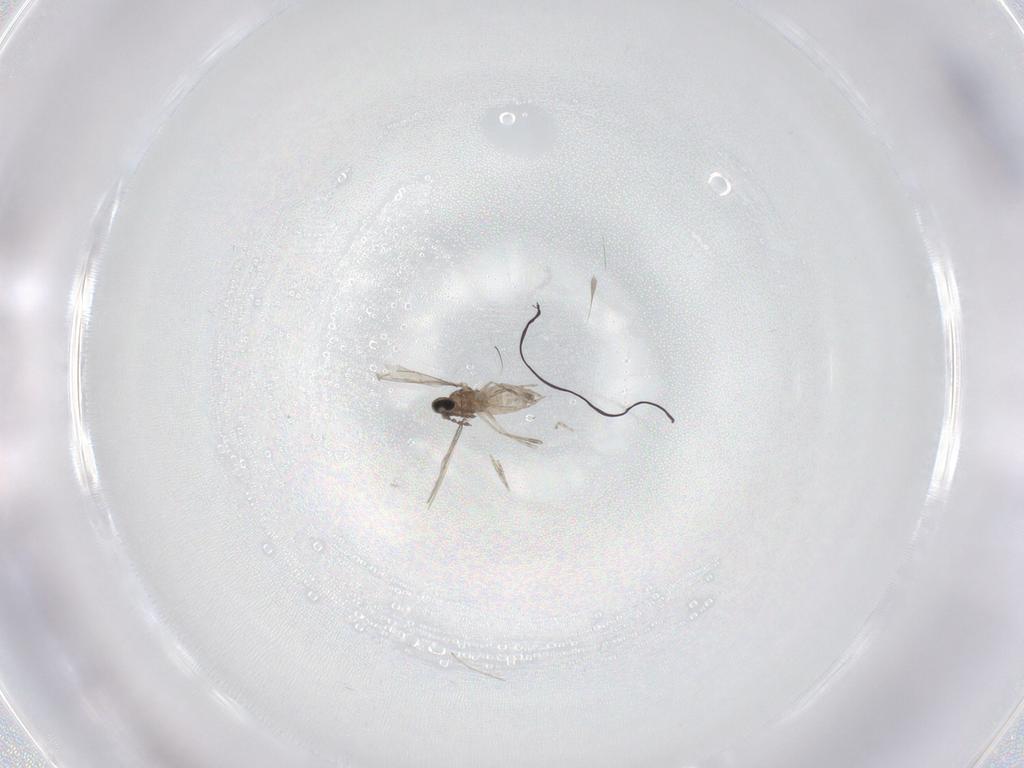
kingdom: Animalia
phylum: Arthropoda
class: Insecta
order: Diptera
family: Cecidomyiidae
